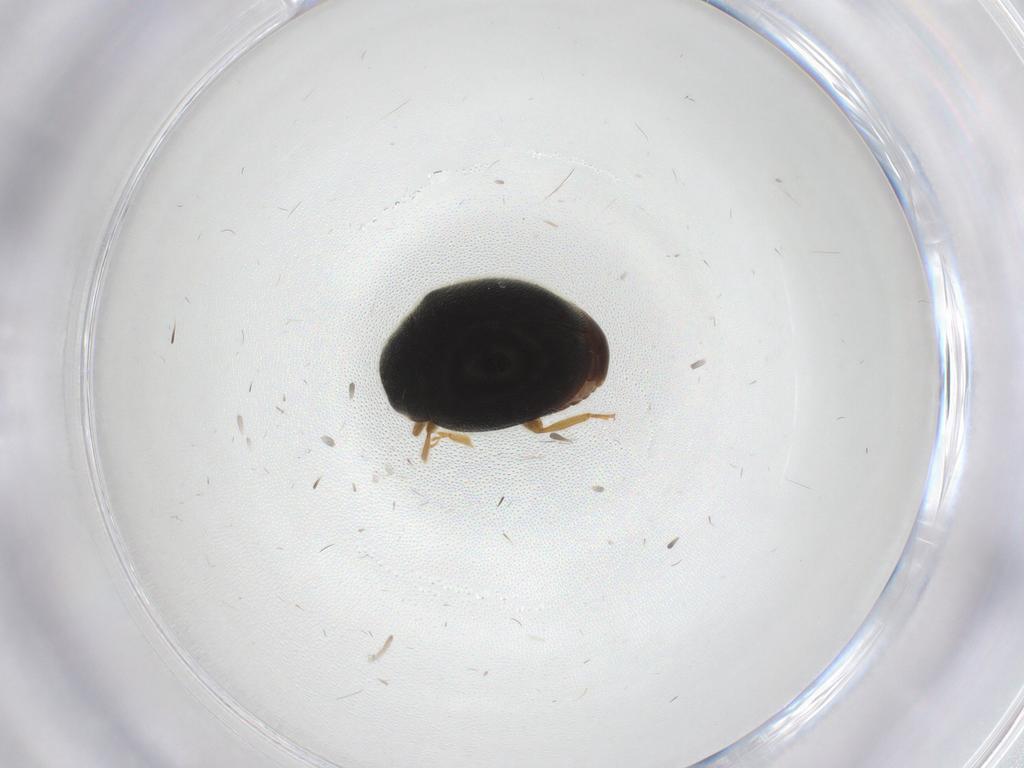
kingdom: Animalia
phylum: Arthropoda
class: Insecta
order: Coleoptera
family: Coccinellidae
